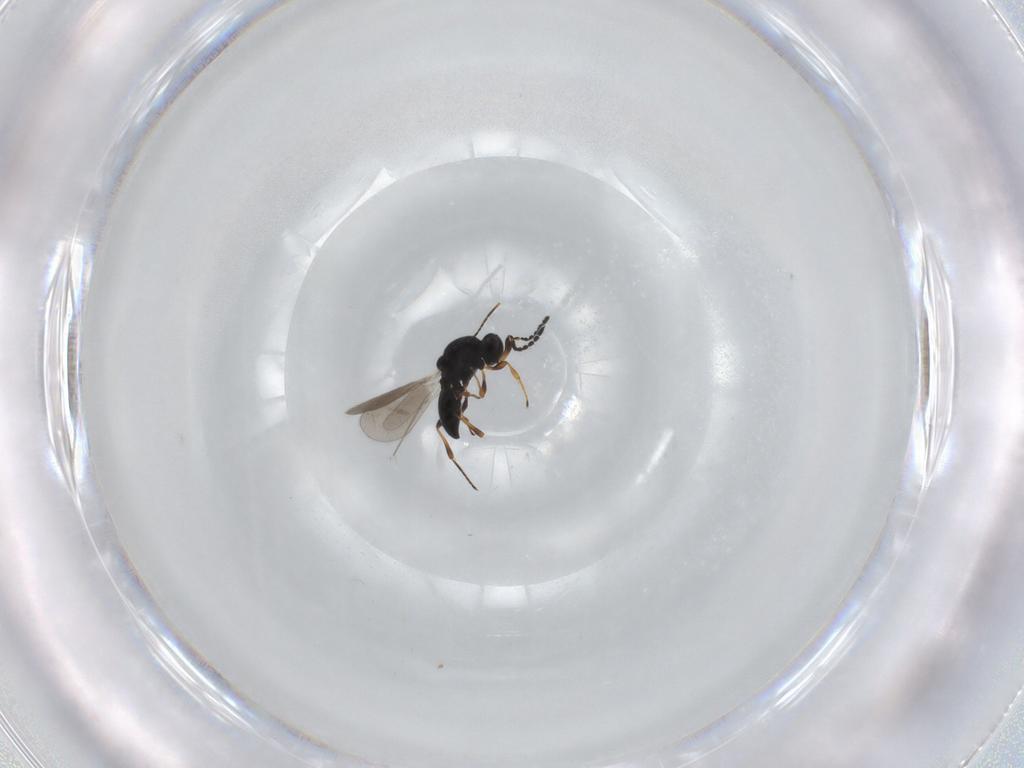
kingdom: Animalia
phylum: Arthropoda
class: Insecta
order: Hymenoptera
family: Platygastridae
